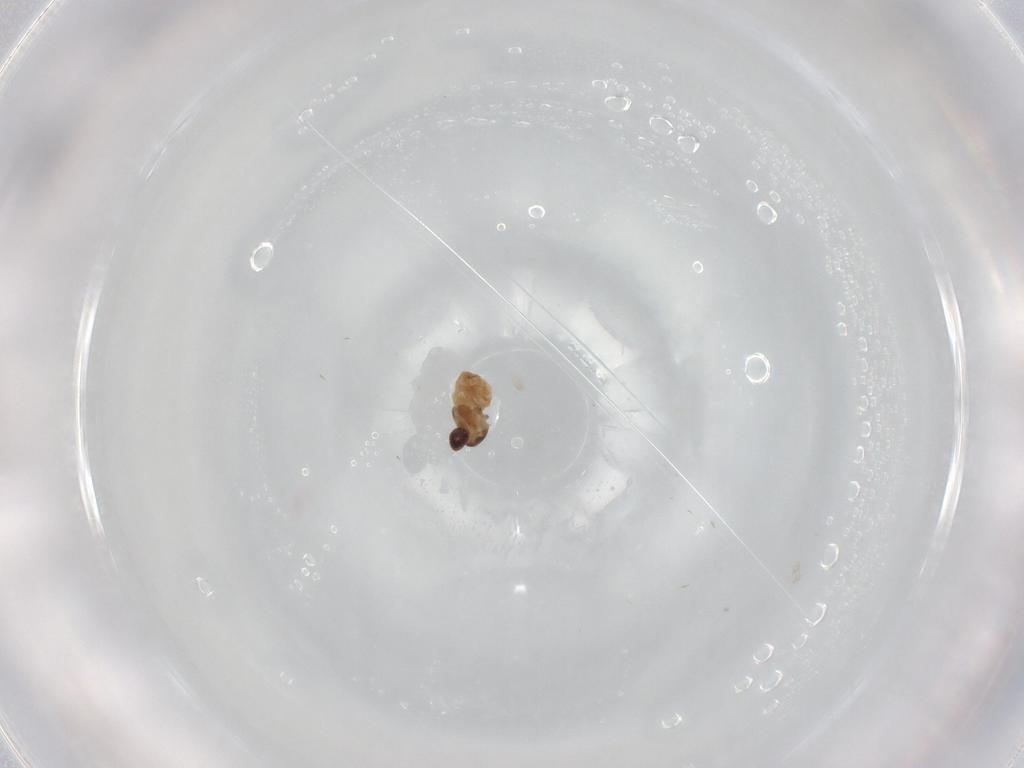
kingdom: Animalia
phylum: Arthropoda
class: Insecta
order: Diptera
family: Cecidomyiidae
